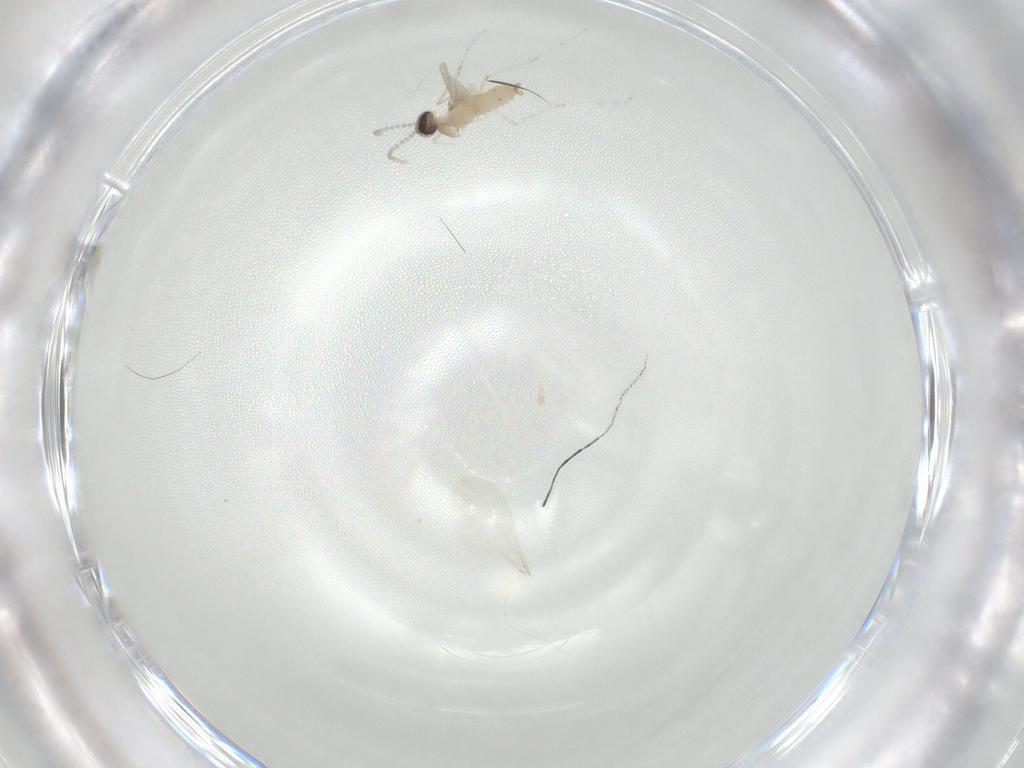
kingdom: Animalia
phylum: Arthropoda
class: Insecta
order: Diptera
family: Cecidomyiidae
